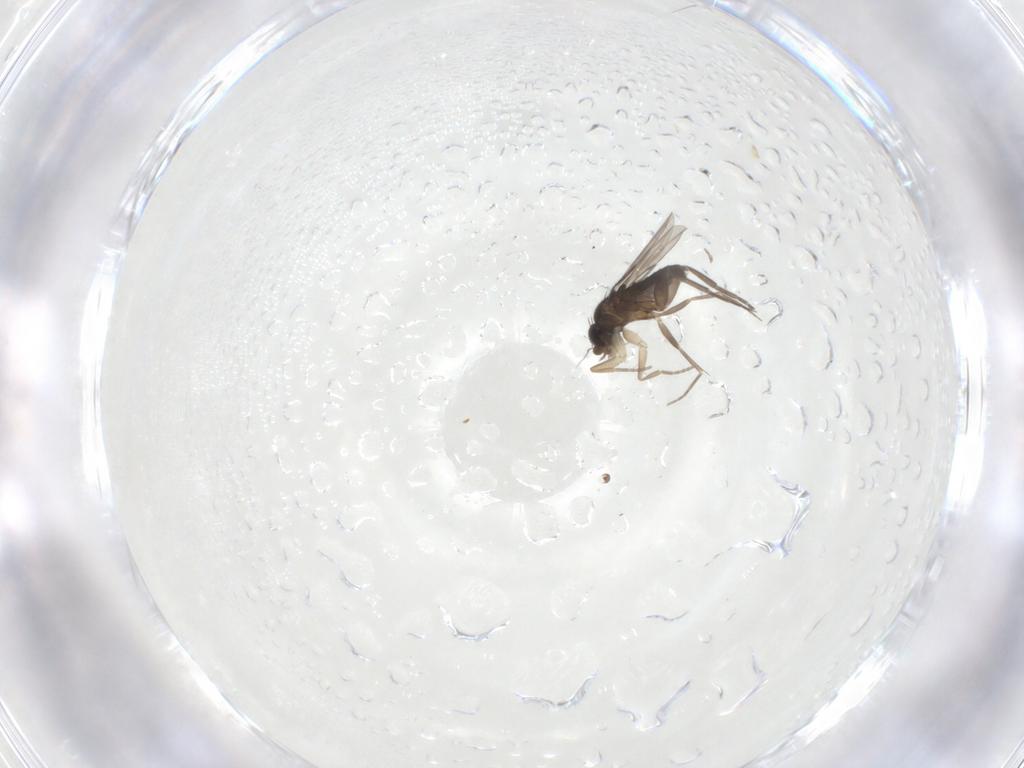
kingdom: Animalia
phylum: Arthropoda
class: Insecta
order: Diptera
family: Phoridae
